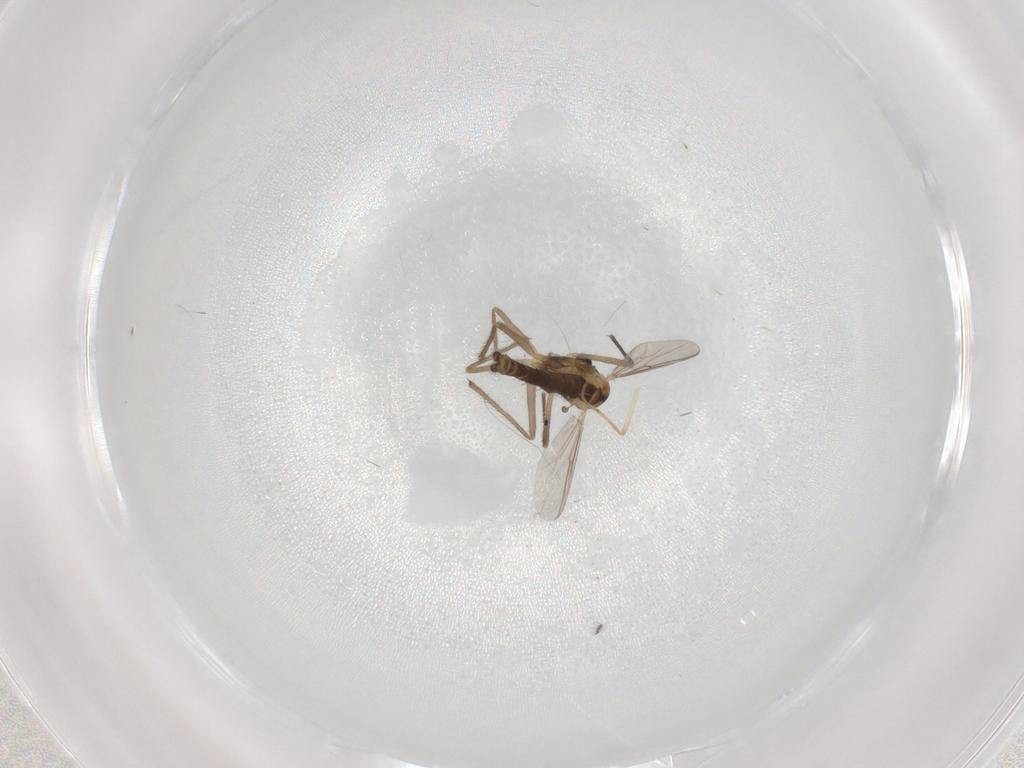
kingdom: Animalia
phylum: Arthropoda
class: Insecta
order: Diptera
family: Chironomidae
